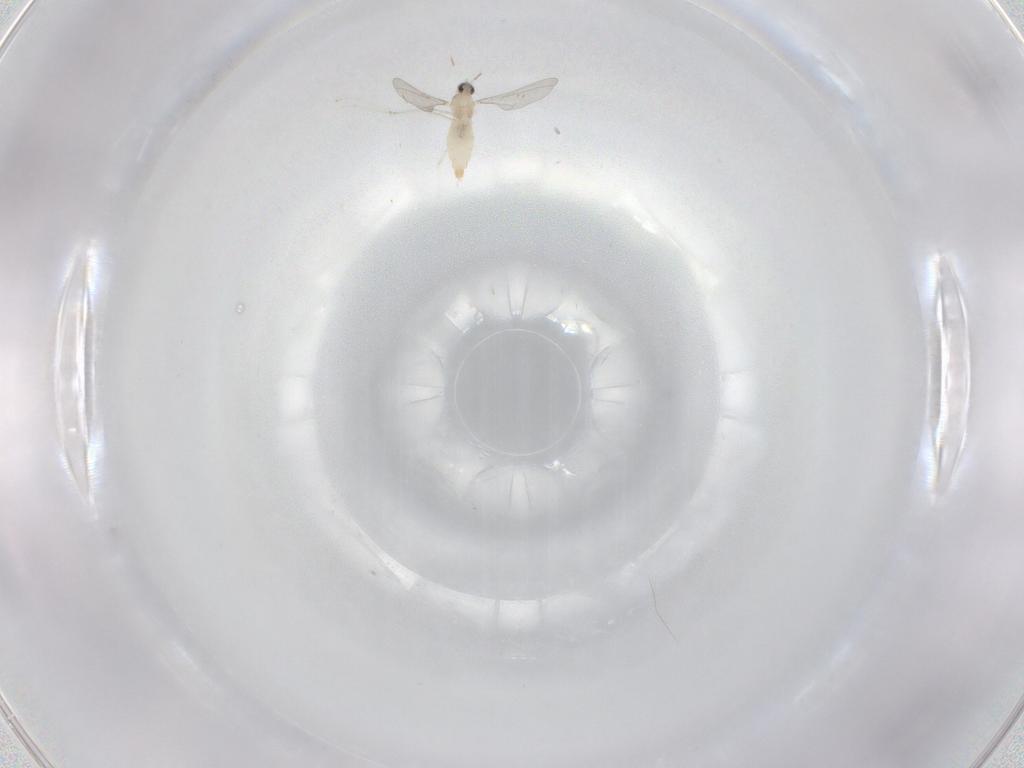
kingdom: Animalia
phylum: Arthropoda
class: Insecta
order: Diptera
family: Cecidomyiidae
